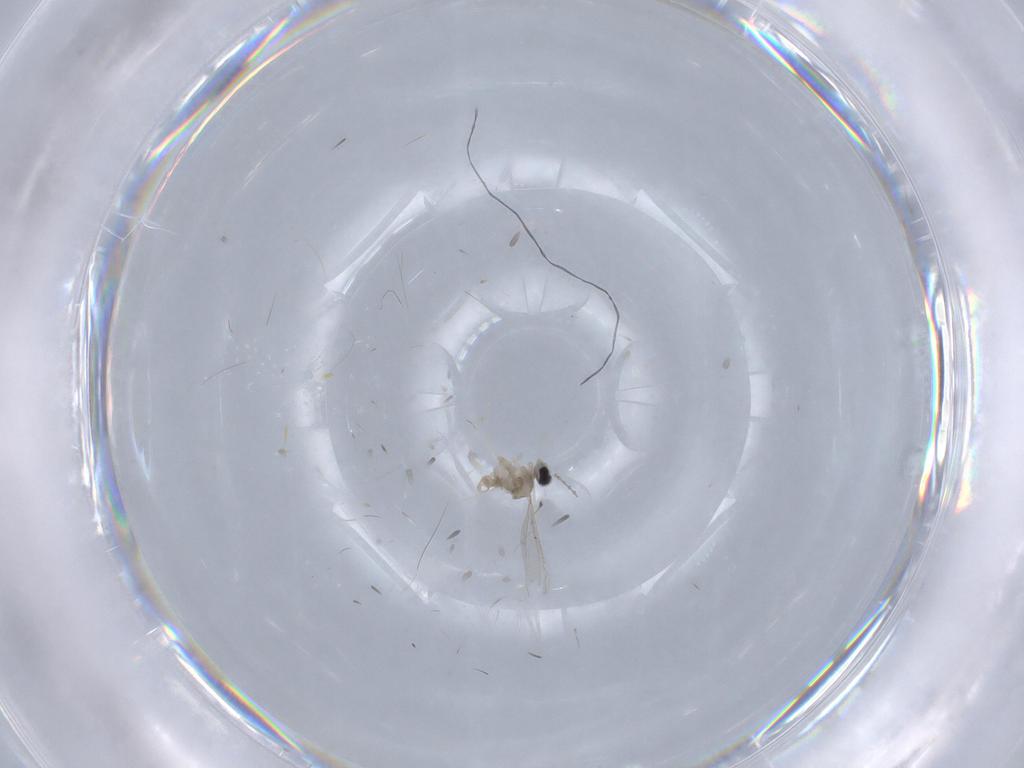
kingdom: Animalia
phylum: Arthropoda
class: Insecta
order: Diptera
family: Cecidomyiidae
